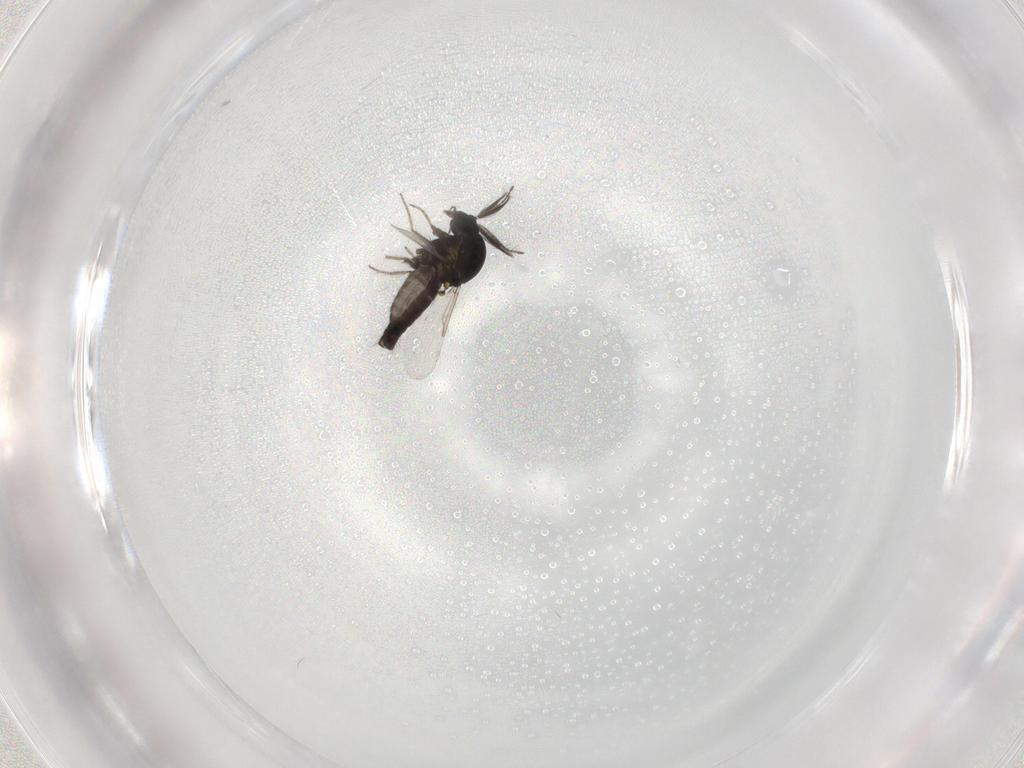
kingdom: Animalia
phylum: Arthropoda
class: Insecta
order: Diptera
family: Ceratopogonidae
